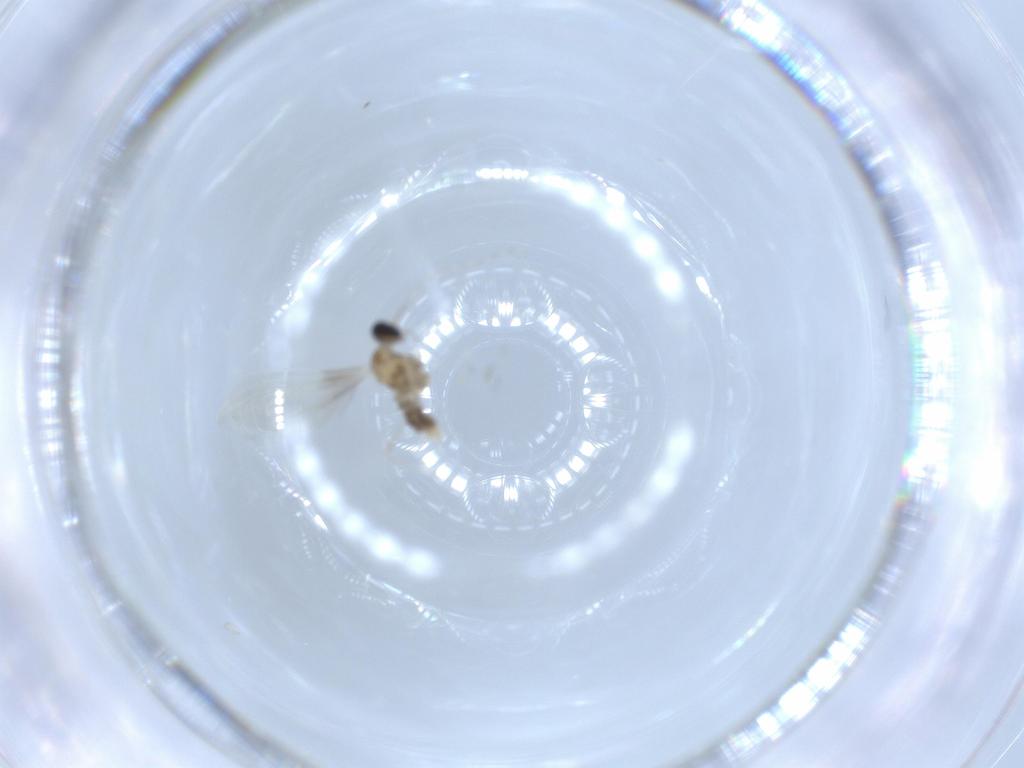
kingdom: Animalia
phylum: Arthropoda
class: Insecta
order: Diptera
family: Cecidomyiidae
